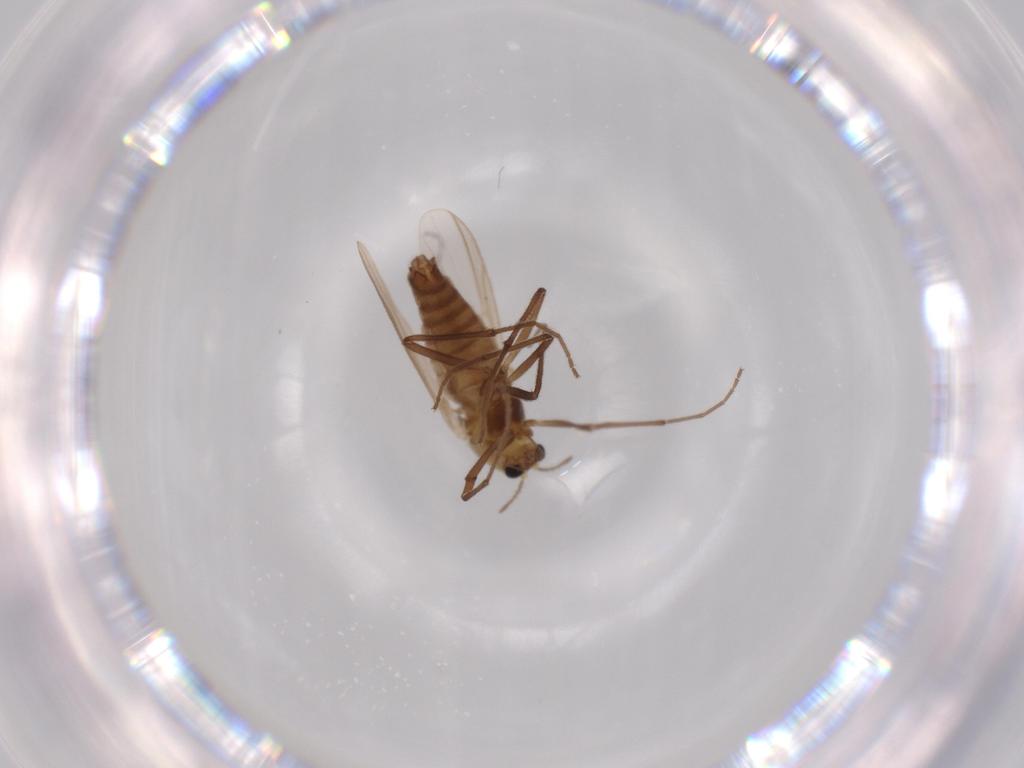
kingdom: Animalia
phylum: Arthropoda
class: Insecta
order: Diptera
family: Chironomidae
